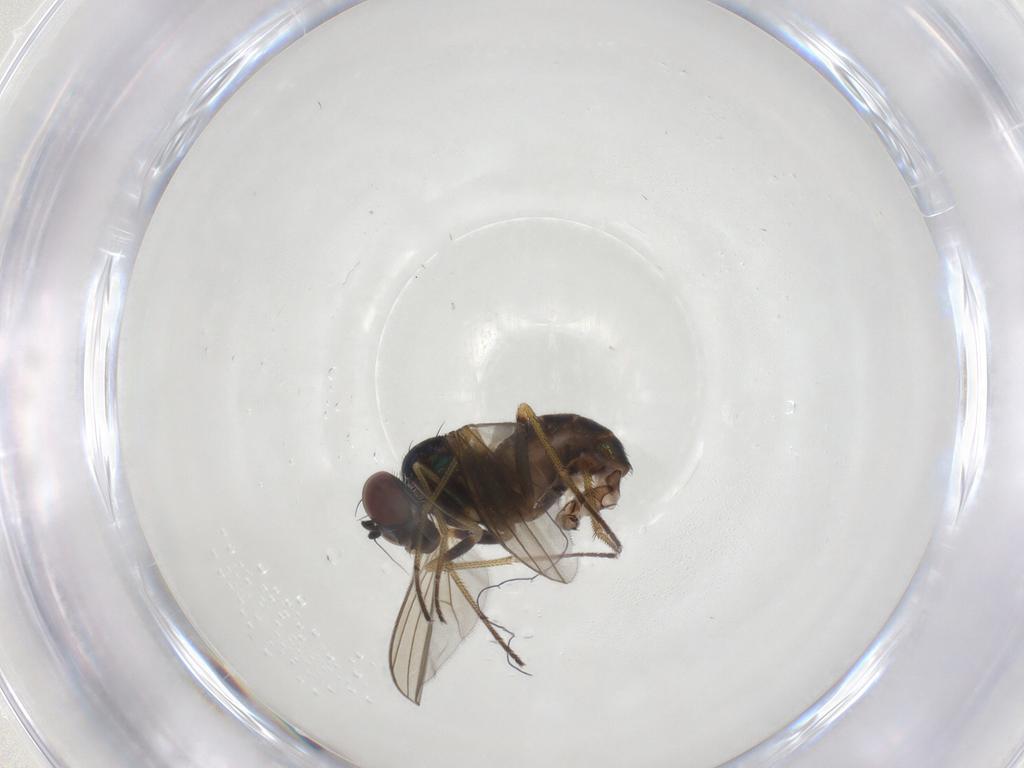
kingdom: Animalia
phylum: Arthropoda
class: Insecta
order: Diptera
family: Dolichopodidae
